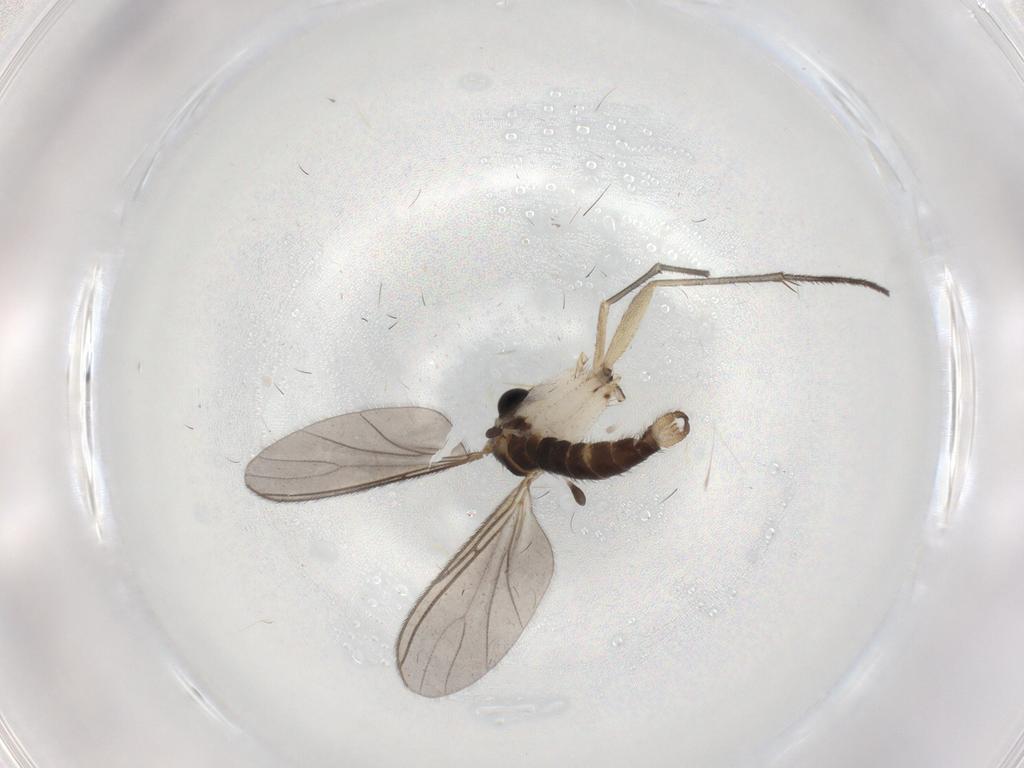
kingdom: Animalia
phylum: Arthropoda
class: Insecta
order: Diptera
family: Sciaridae
